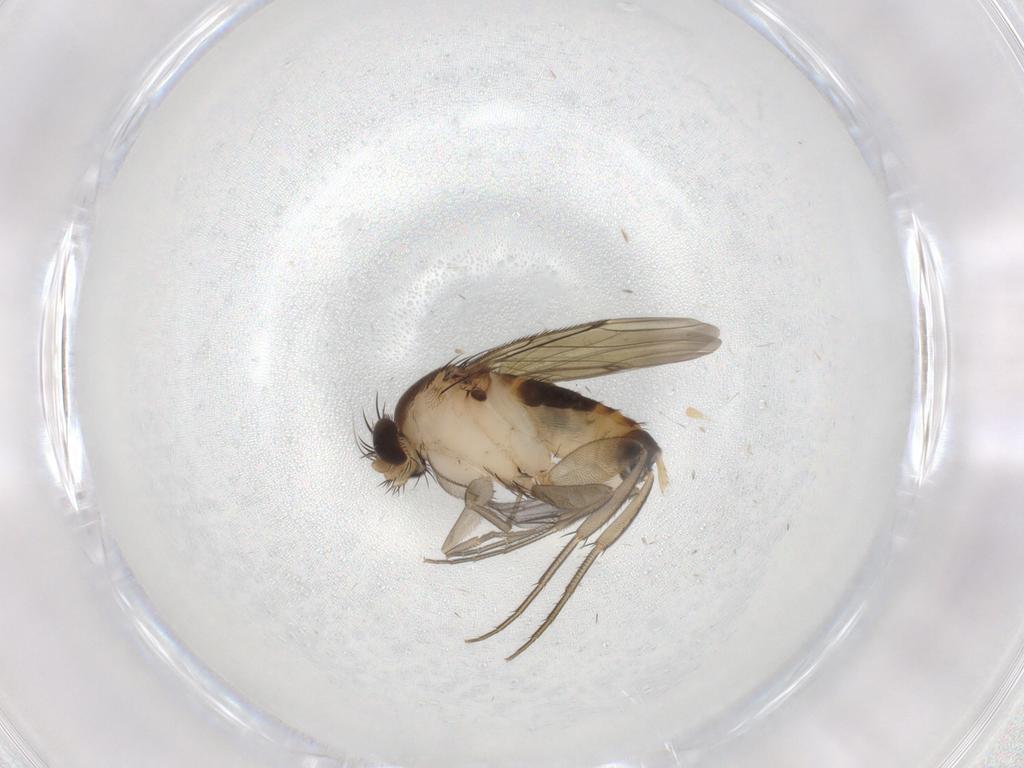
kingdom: Animalia
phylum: Arthropoda
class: Insecta
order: Diptera
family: Phoridae
